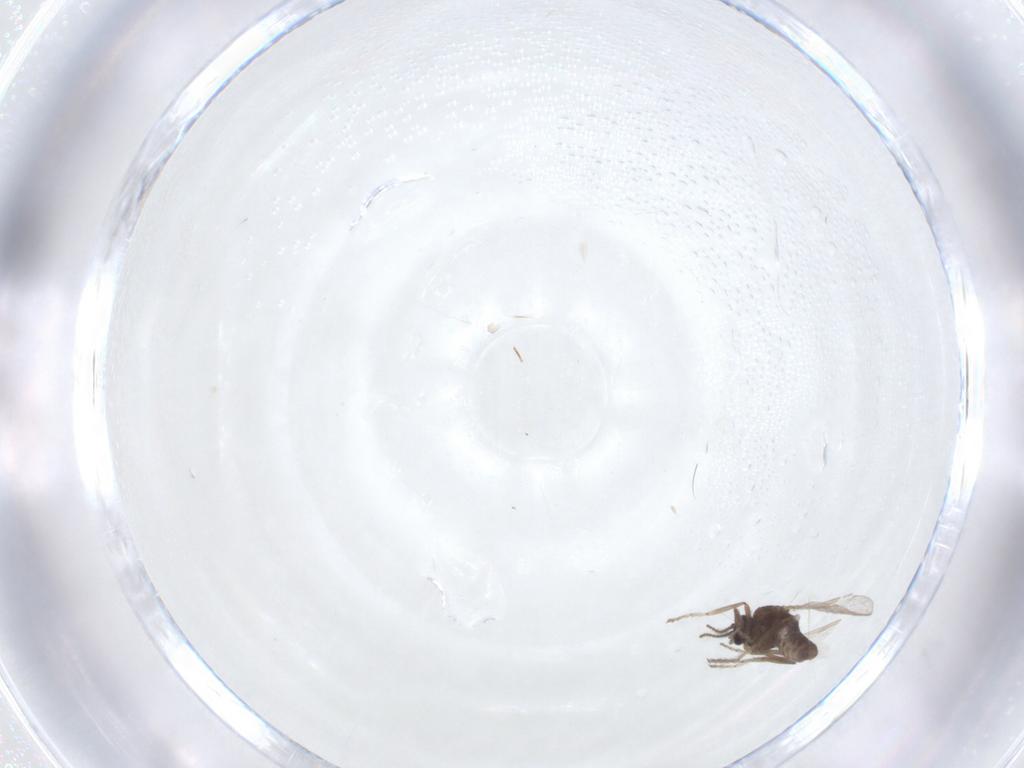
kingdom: Animalia
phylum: Arthropoda
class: Insecta
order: Diptera
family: Ceratopogonidae
